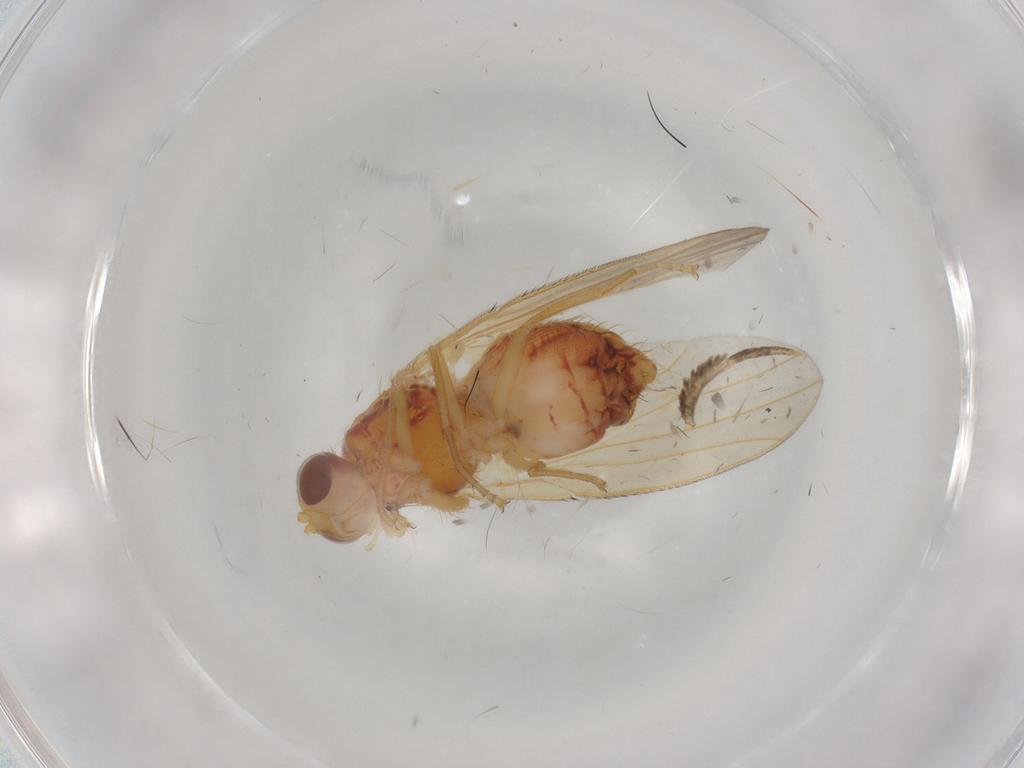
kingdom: Animalia
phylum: Arthropoda
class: Insecta
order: Diptera
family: Heleomyzidae
